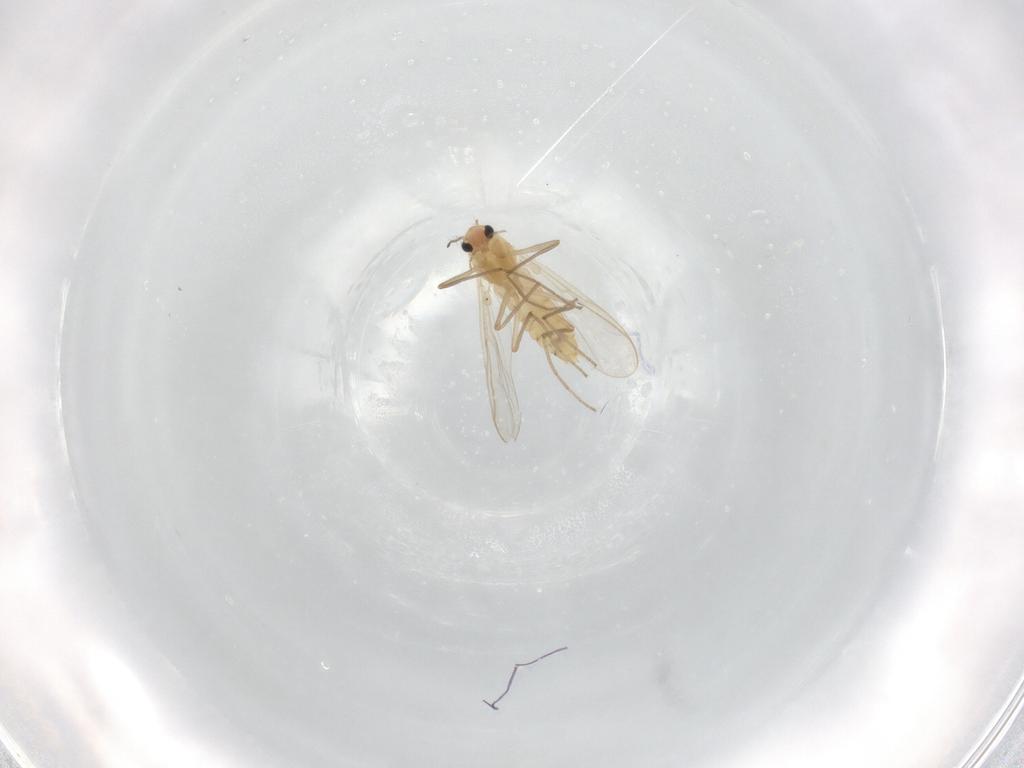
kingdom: Animalia
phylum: Arthropoda
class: Insecta
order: Diptera
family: Chironomidae
